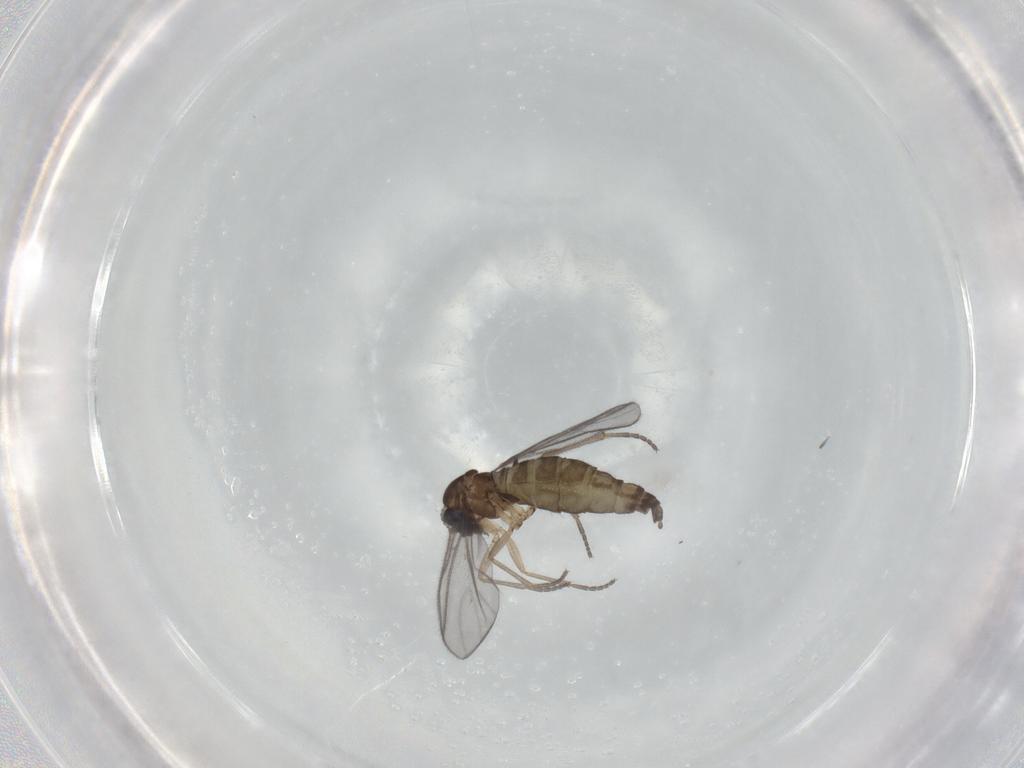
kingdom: Animalia
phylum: Arthropoda
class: Insecta
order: Diptera
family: Sciaridae
